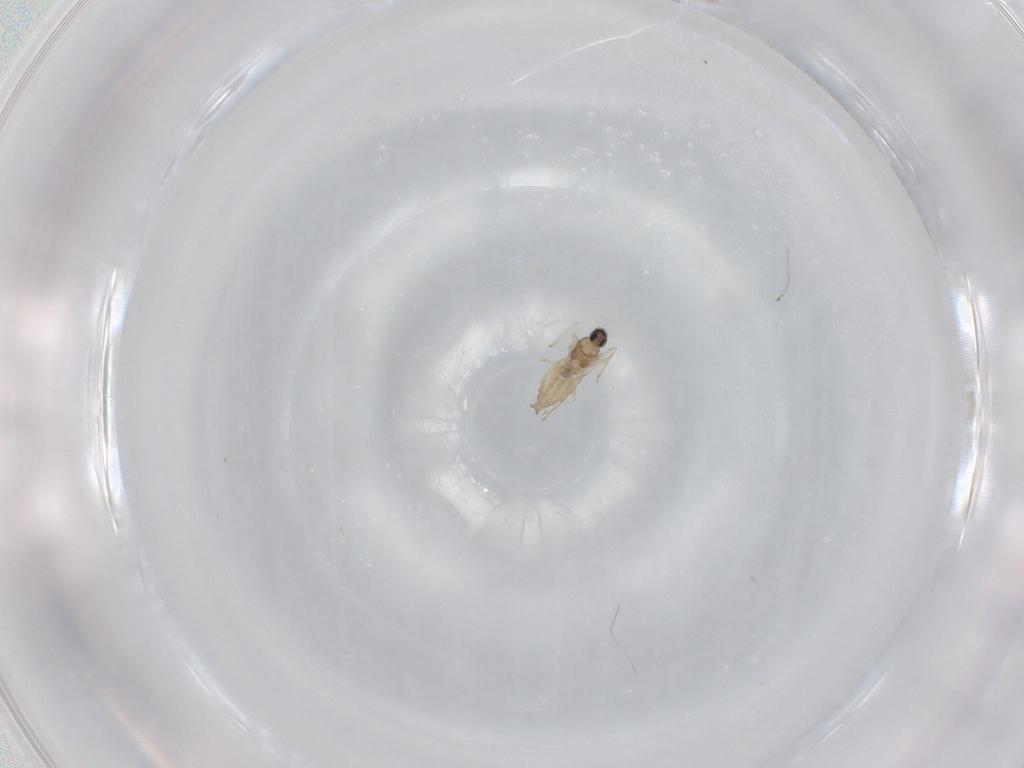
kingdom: Animalia
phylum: Arthropoda
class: Insecta
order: Diptera
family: Cecidomyiidae
